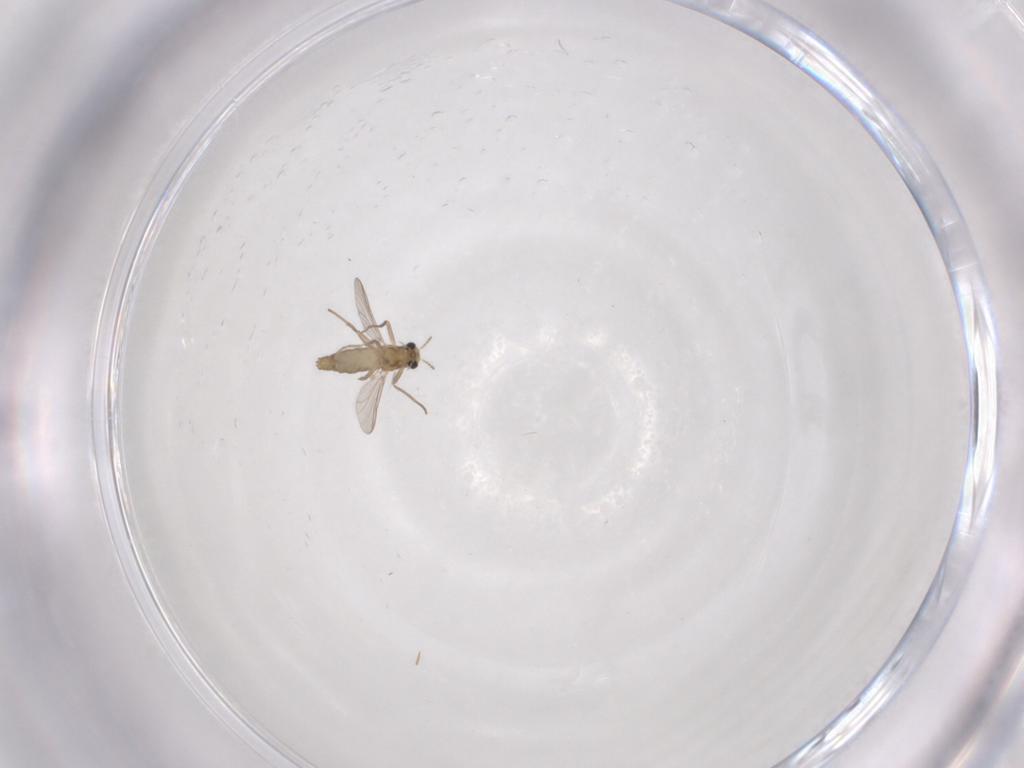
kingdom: Animalia
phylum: Arthropoda
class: Insecta
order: Diptera
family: Chironomidae
